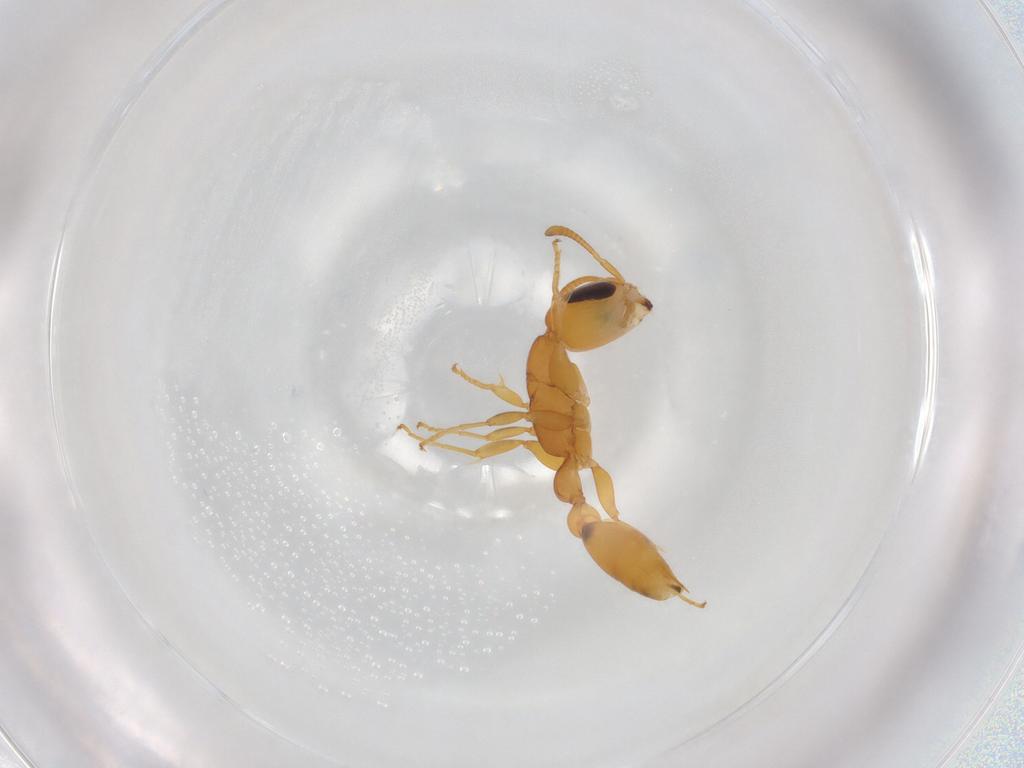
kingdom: Animalia
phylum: Arthropoda
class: Insecta
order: Hymenoptera
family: Formicidae
